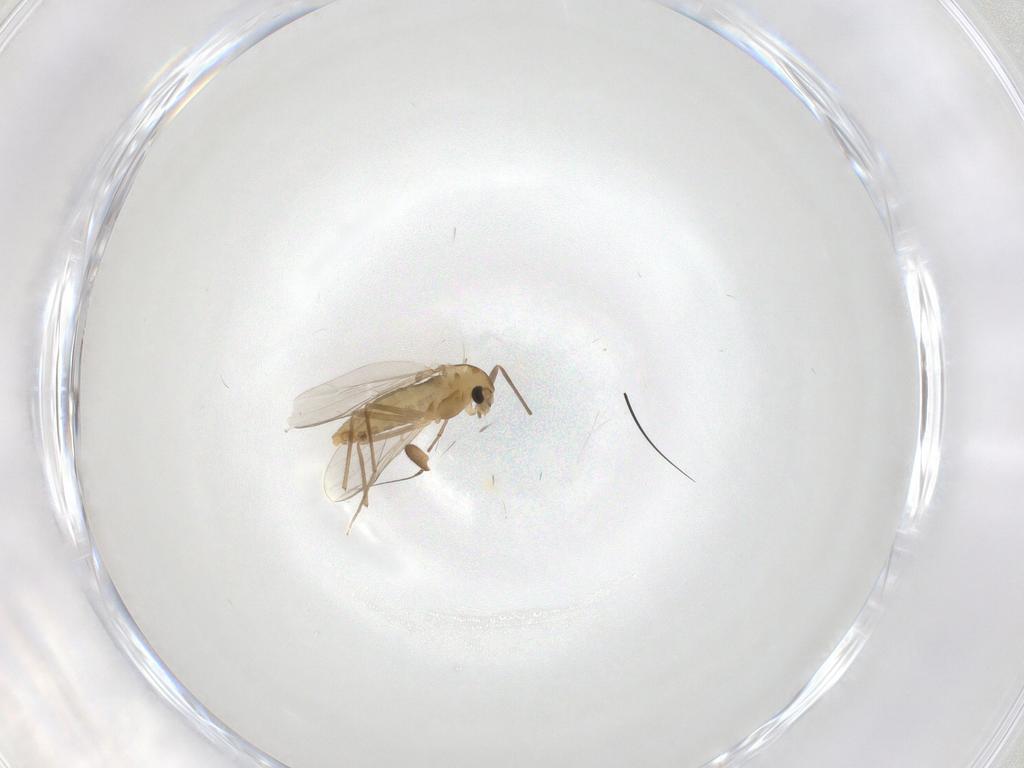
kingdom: Animalia
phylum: Arthropoda
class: Insecta
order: Diptera
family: Chironomidae
